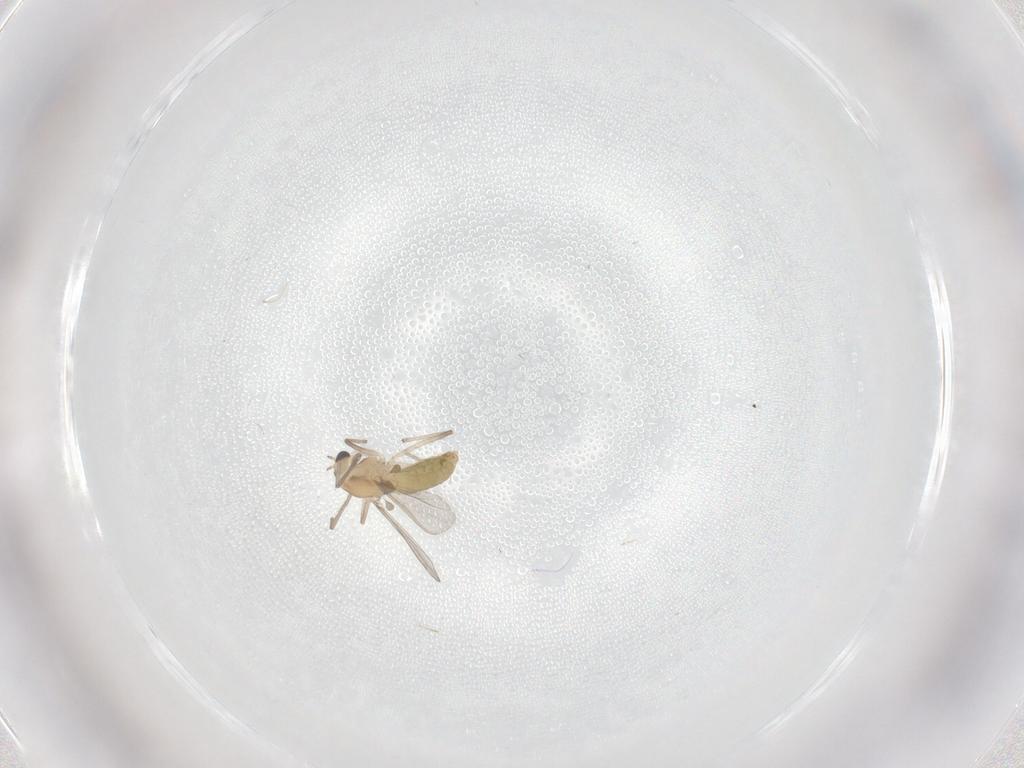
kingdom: Animalia
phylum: Arthropoda
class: Insecta
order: Diptera
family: Chironomidae
